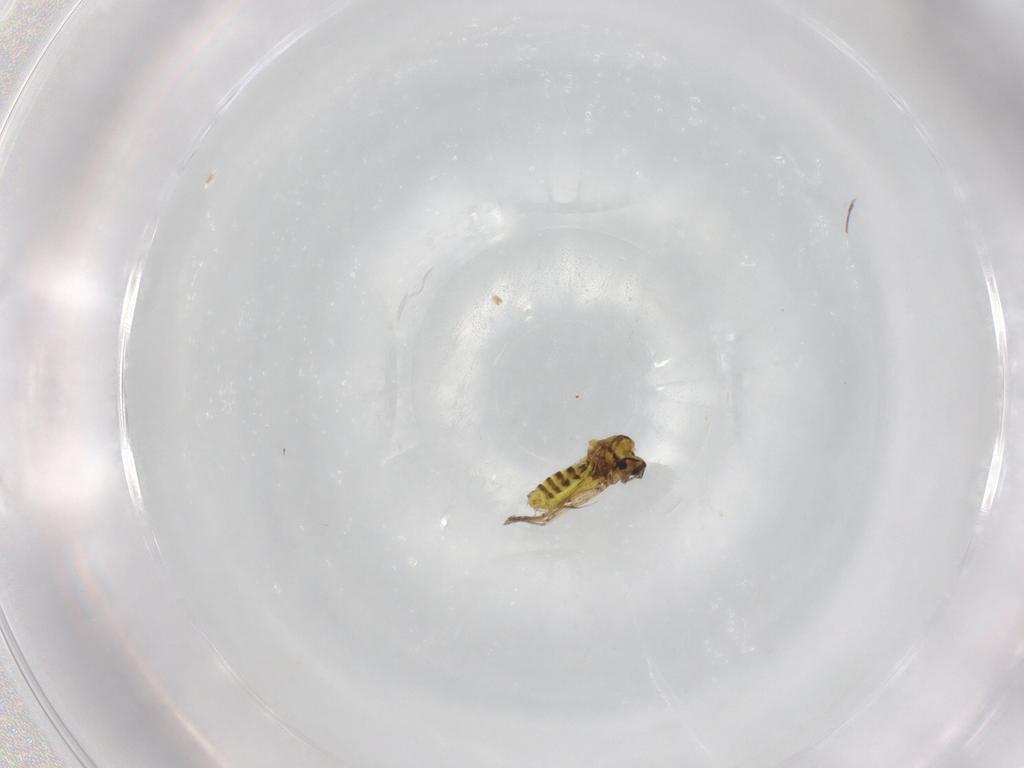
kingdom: Animalia
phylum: Arthropoda
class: Insecta
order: Diptera
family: Ceratopogonidae
